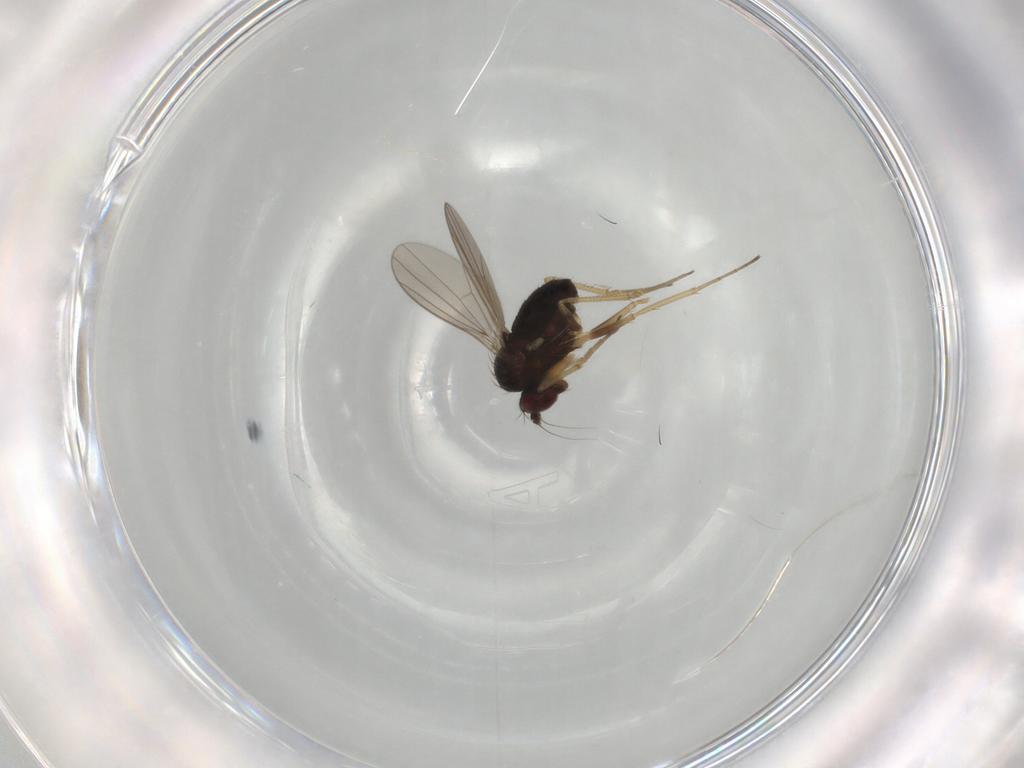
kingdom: Animalia
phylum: Arthropoda
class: Insecta
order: Diptera
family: Dolichopodidae
